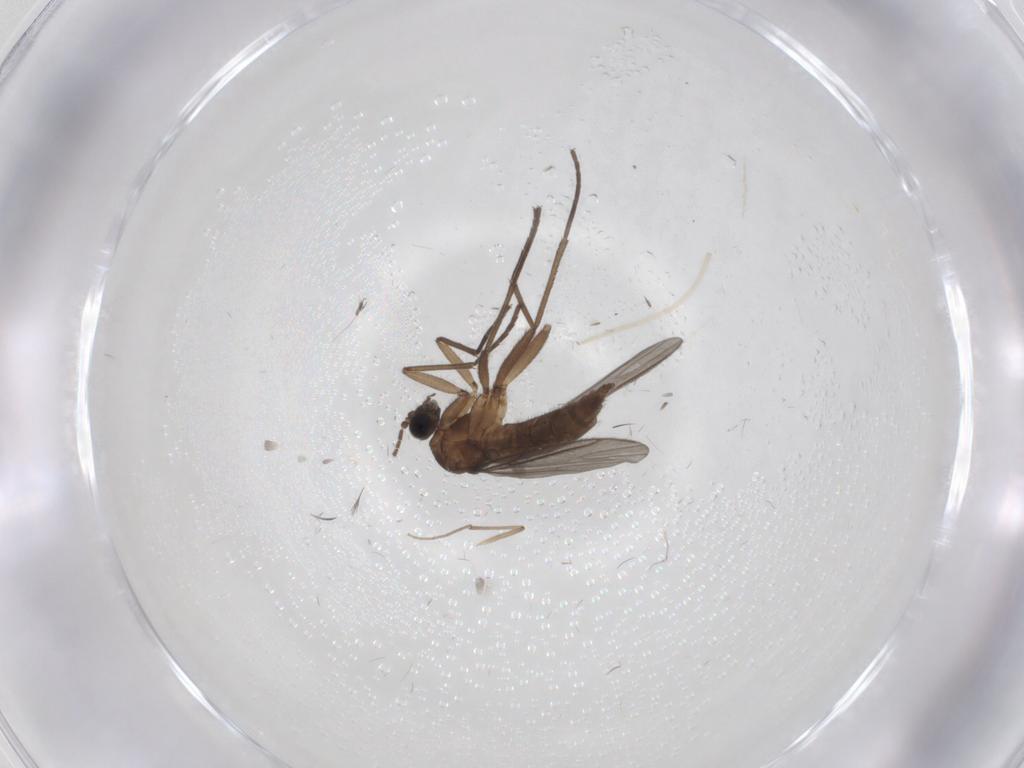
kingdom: Animalia
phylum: Arthropoda
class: Insecta
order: Diptera
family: Sciaridae
